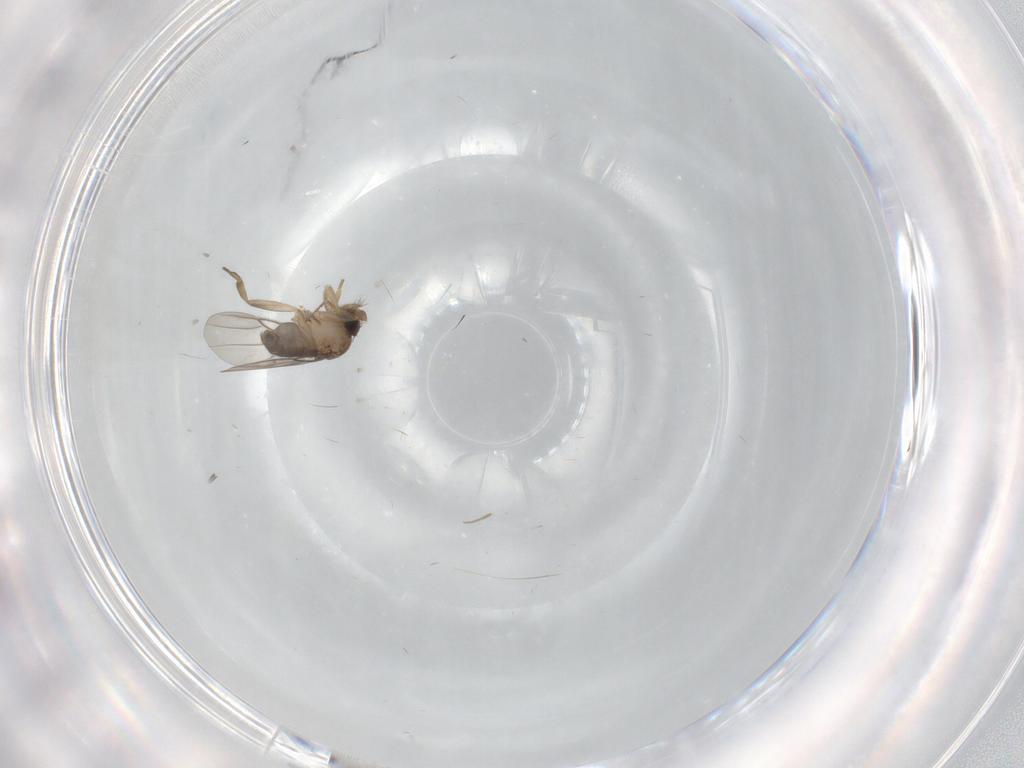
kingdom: Animalia
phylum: Arthropoda
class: Insecta
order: Diptera
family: Phoridae
